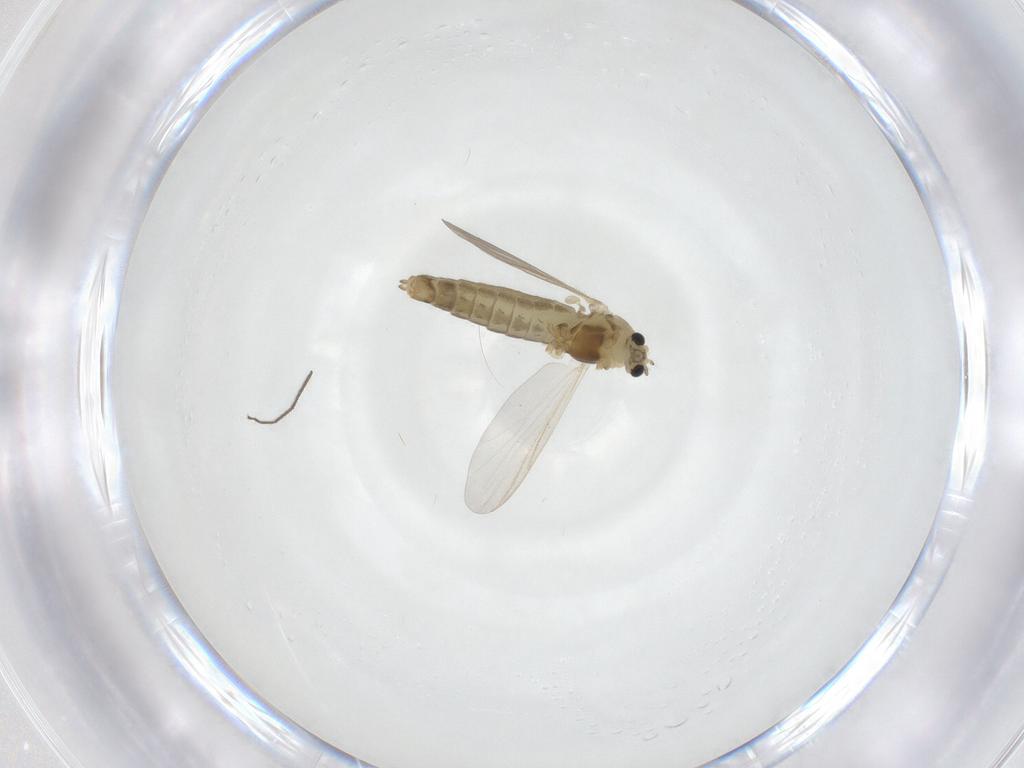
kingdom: Animalia
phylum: Arthropoda
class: Insecta
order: Diptera
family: Chironomidae
